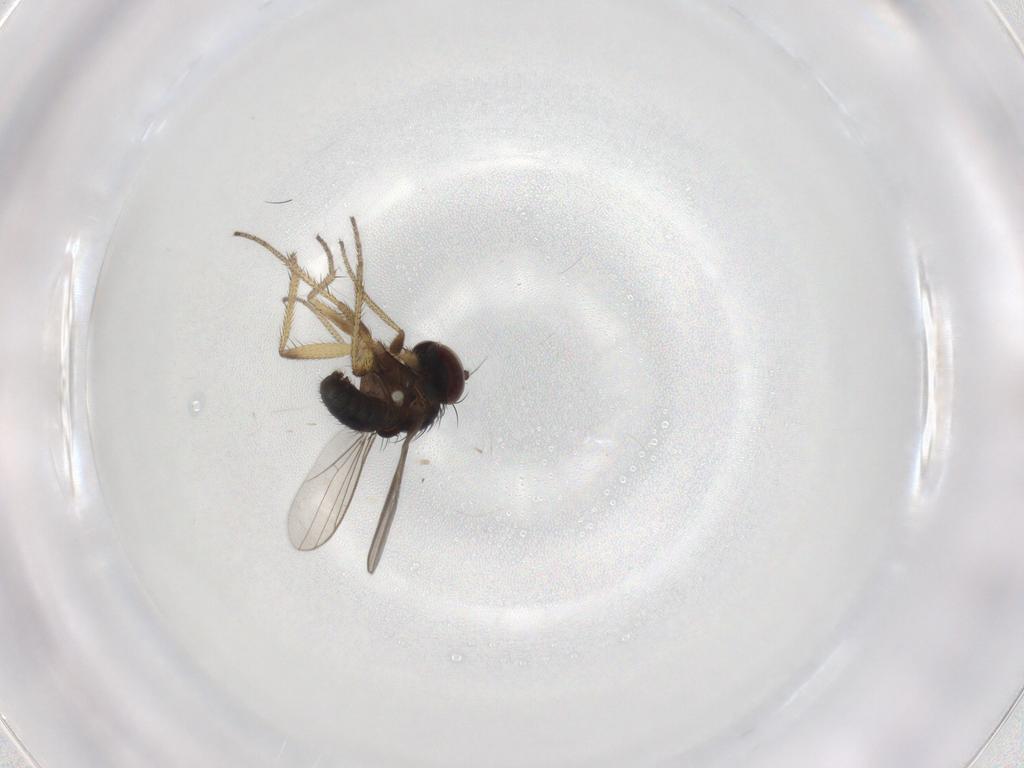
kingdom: Animalia
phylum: Arthropoda
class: Insecta
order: Diptera
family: Dolichopodidae
